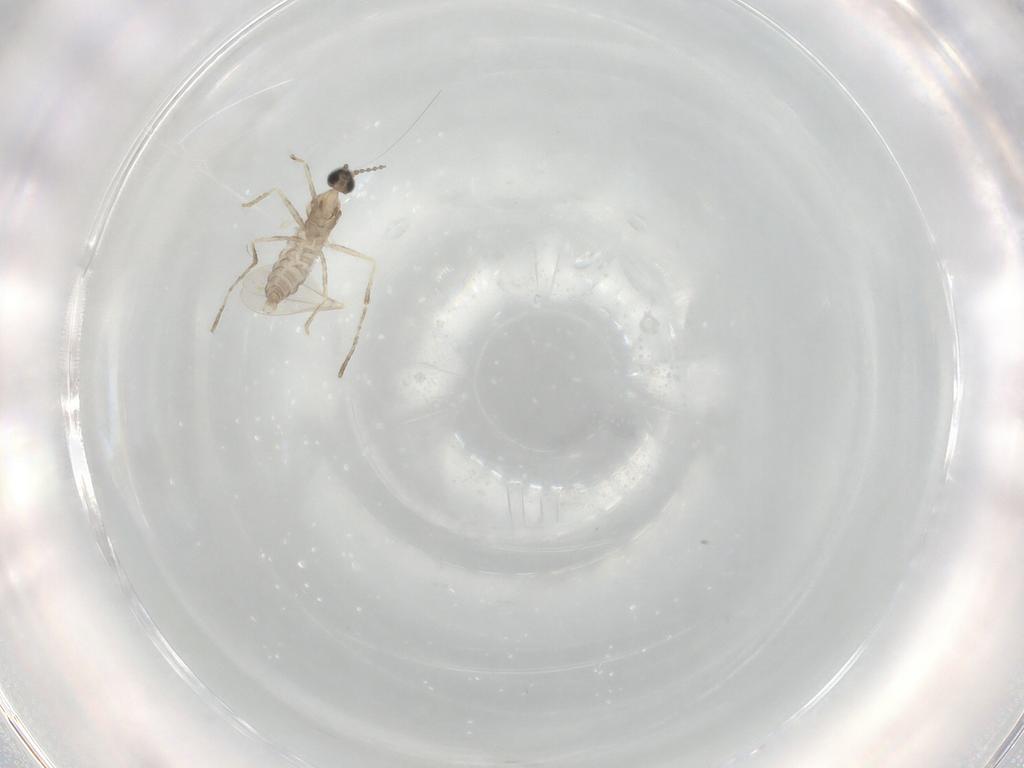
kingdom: Animalia
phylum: Arthropoda
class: Insecta
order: Diptera
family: Cecidomyiidae
